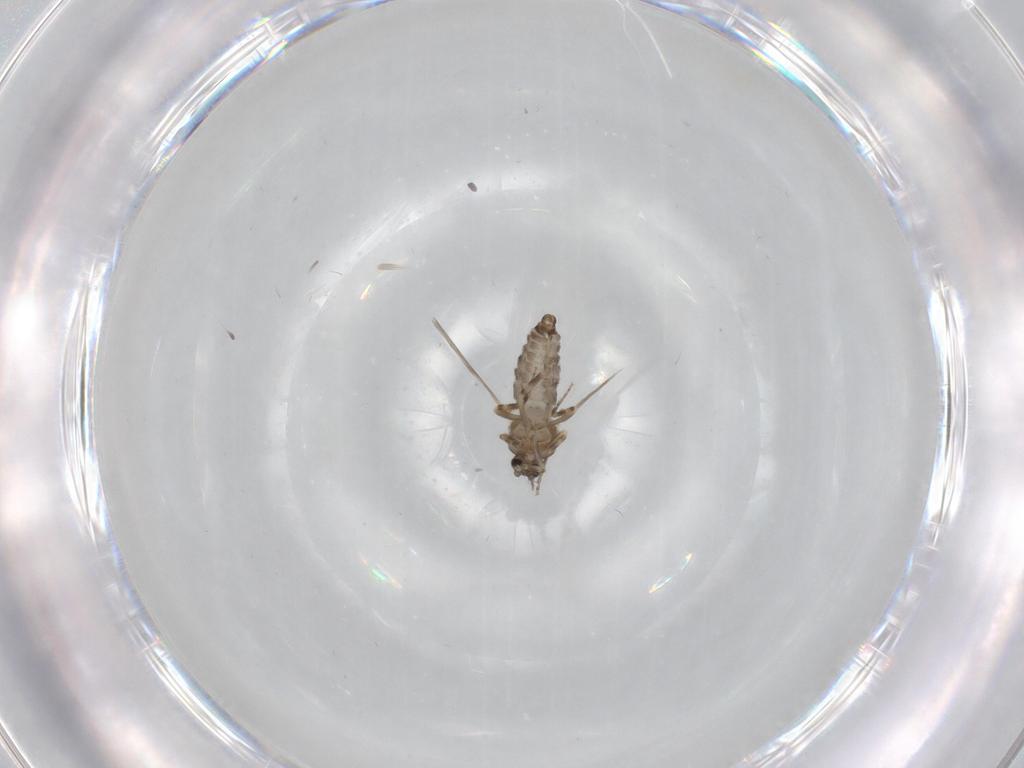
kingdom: Animalia
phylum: Arthropoda
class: Insecta
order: Diptera
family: Ceratopogonidae
